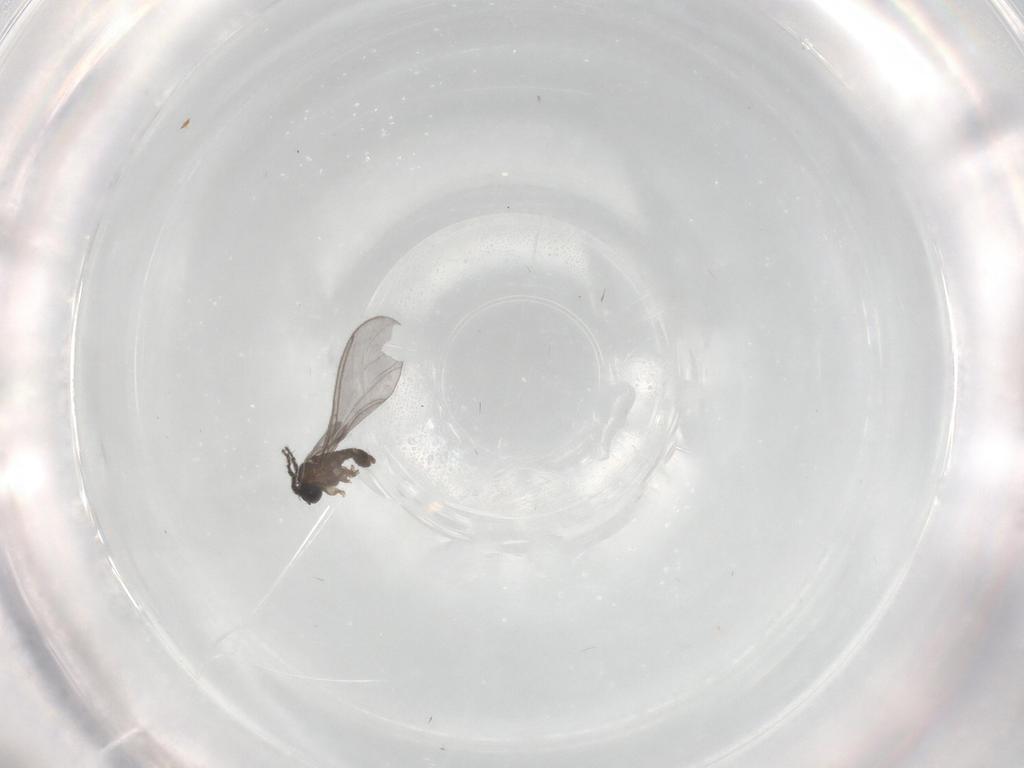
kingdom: Animalia
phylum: Arthropoda
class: Insecta
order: Diptera
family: Sciaridae
